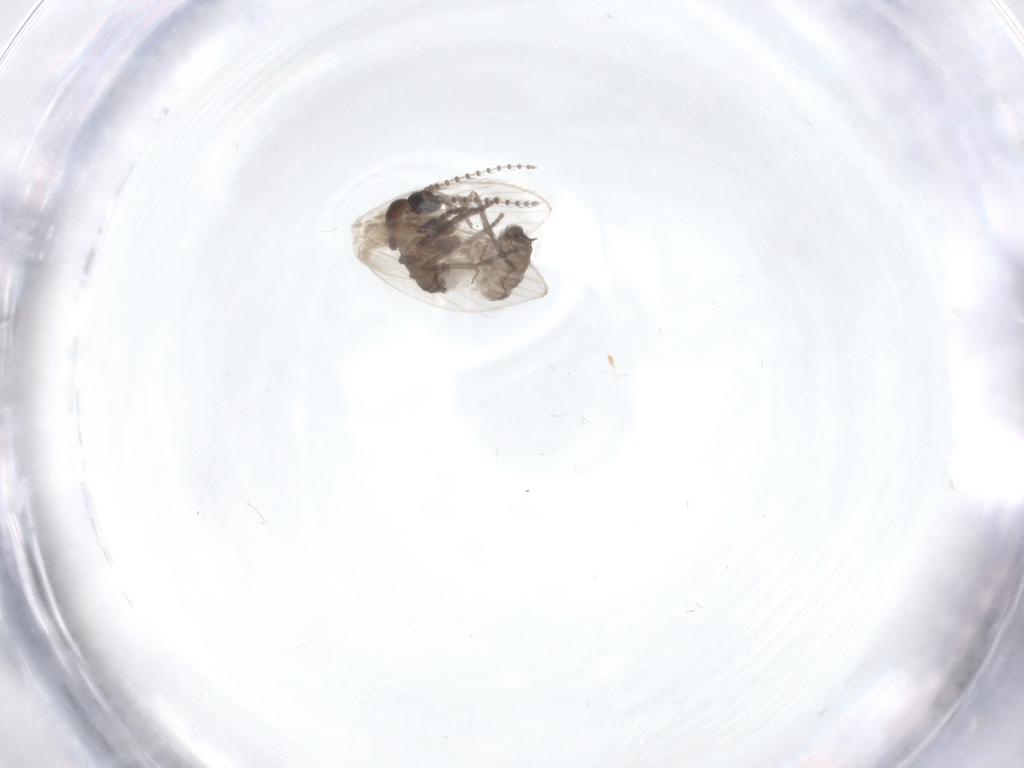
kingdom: Animalia
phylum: Arthropoda
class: Insecta
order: Diptera
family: Psychodidae
